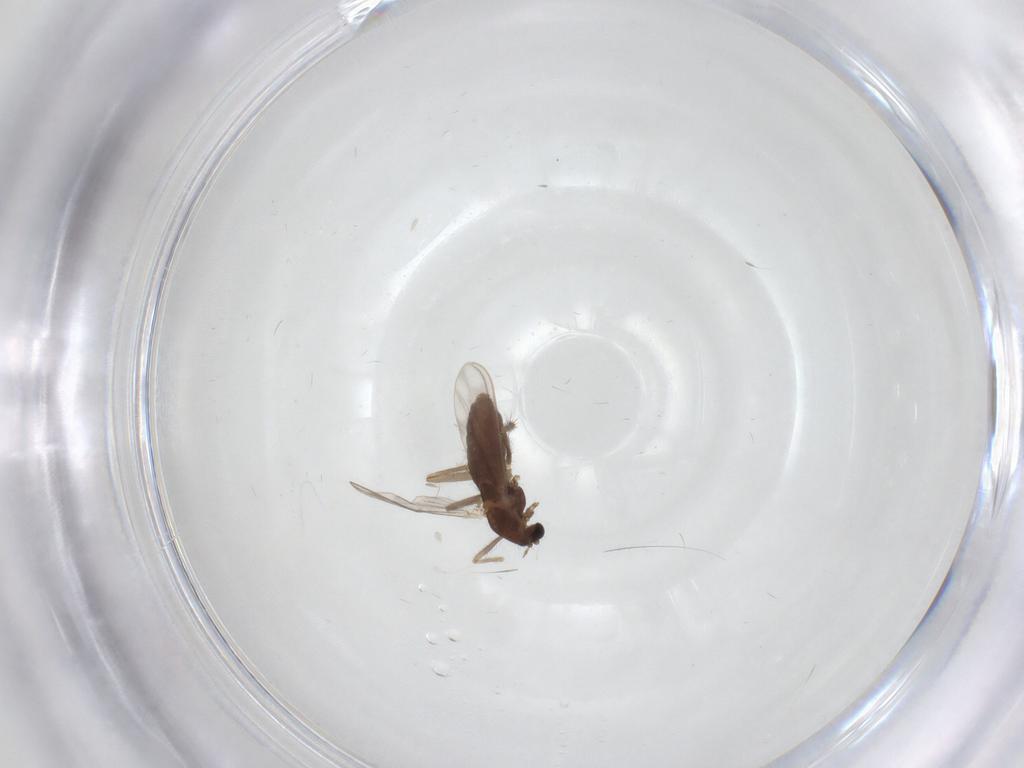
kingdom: Animalia
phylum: Arthropoda
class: Insecta
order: Diptera
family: Psychodidae
